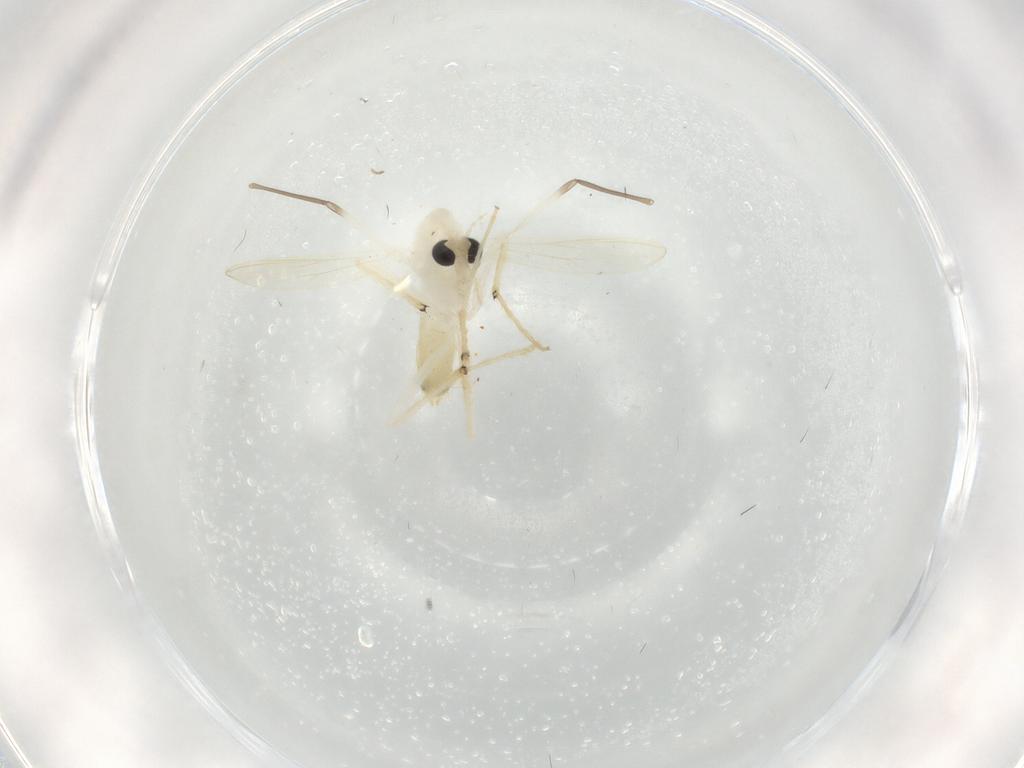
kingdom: Animalia
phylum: Arthropoda
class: Insecta
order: Diptera
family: Chironomidae
